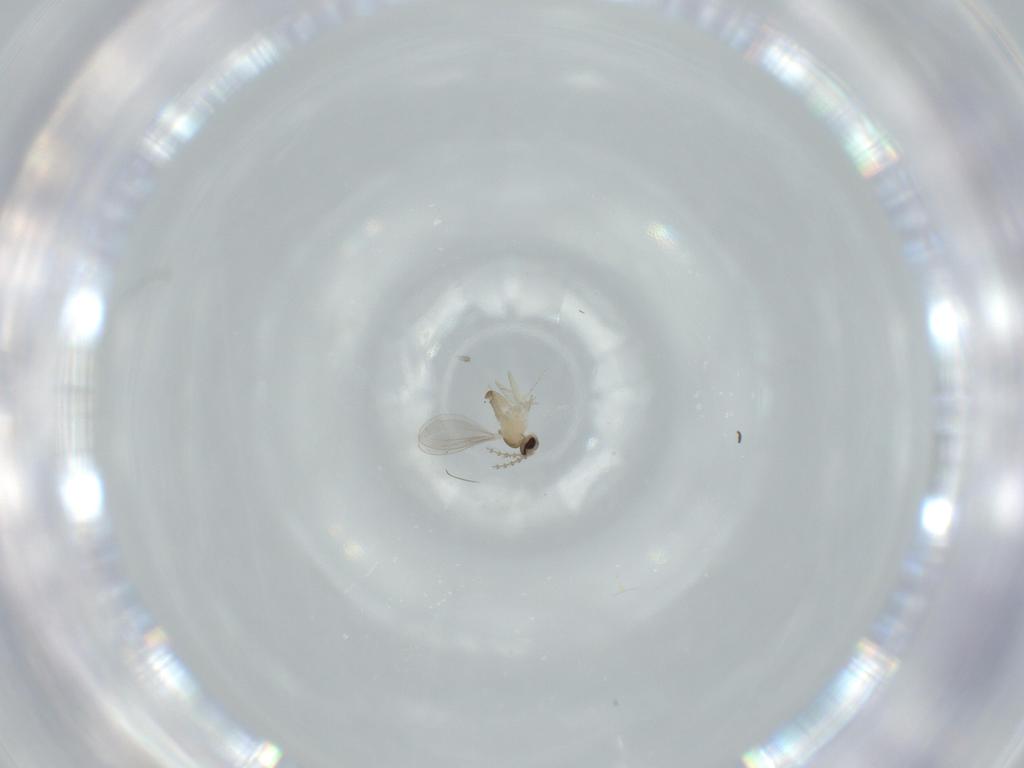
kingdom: Animalia
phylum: Arthropoda
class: Insecta
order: Diptera
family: Cecidomyiidae
